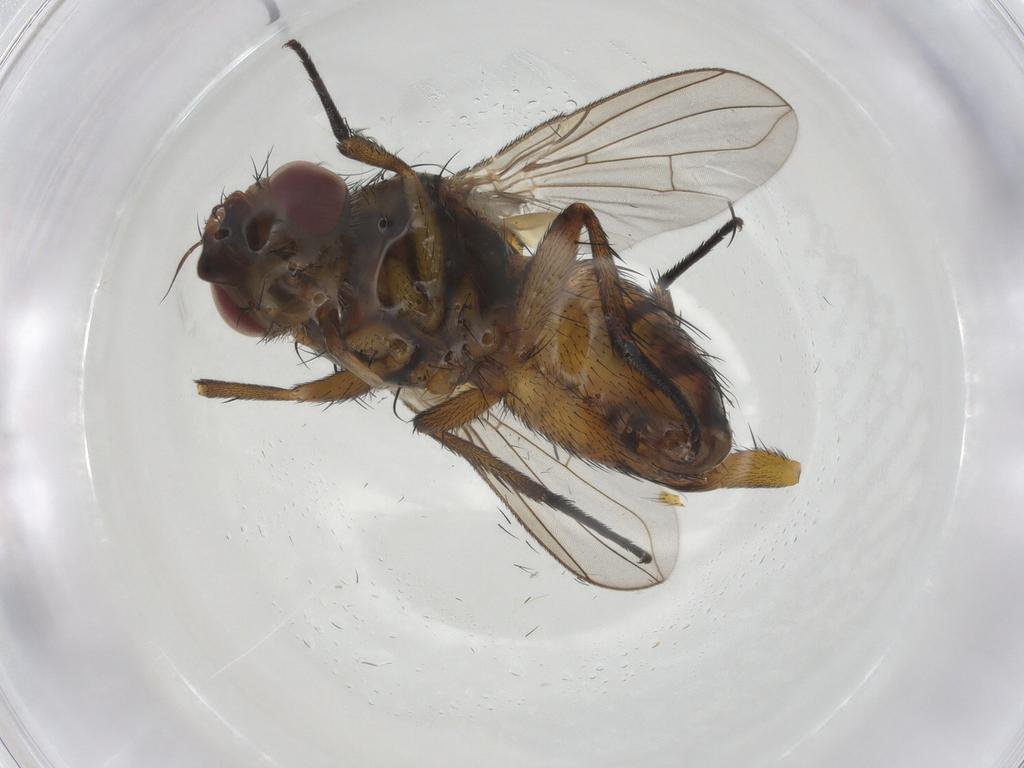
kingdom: Animalia
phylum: Arthropoda
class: Insecta
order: Diptera
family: Tachinidae
